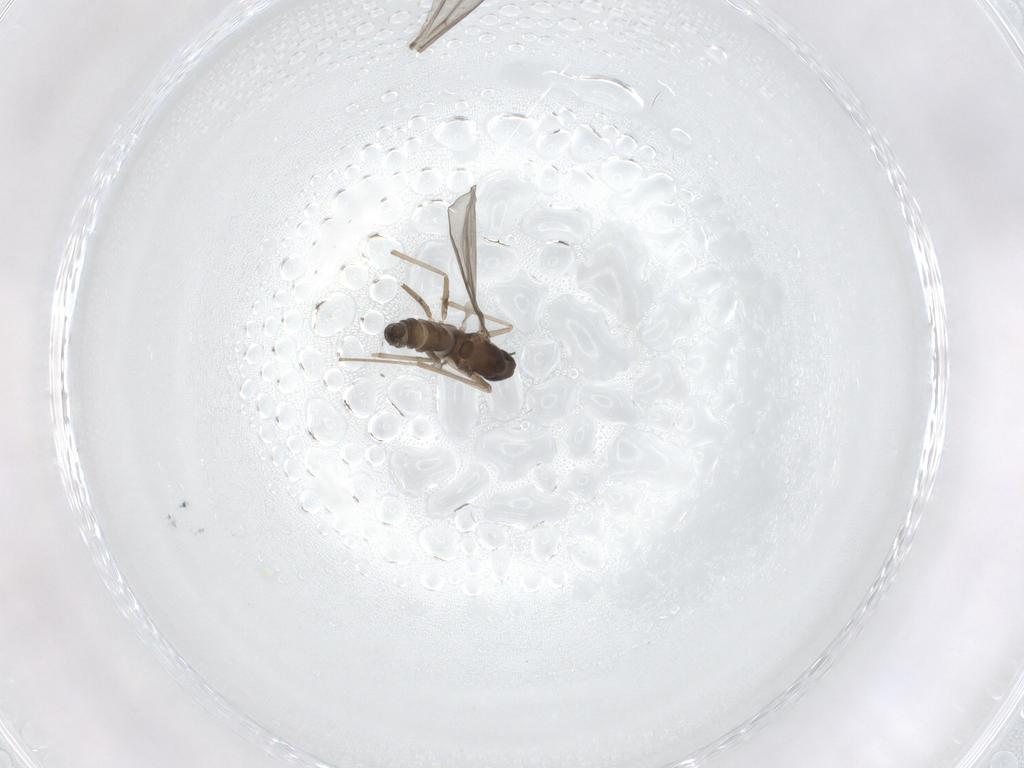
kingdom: Animalia
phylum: Arthropoda
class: Insecta
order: Diptera
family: Cecidomyiidae
